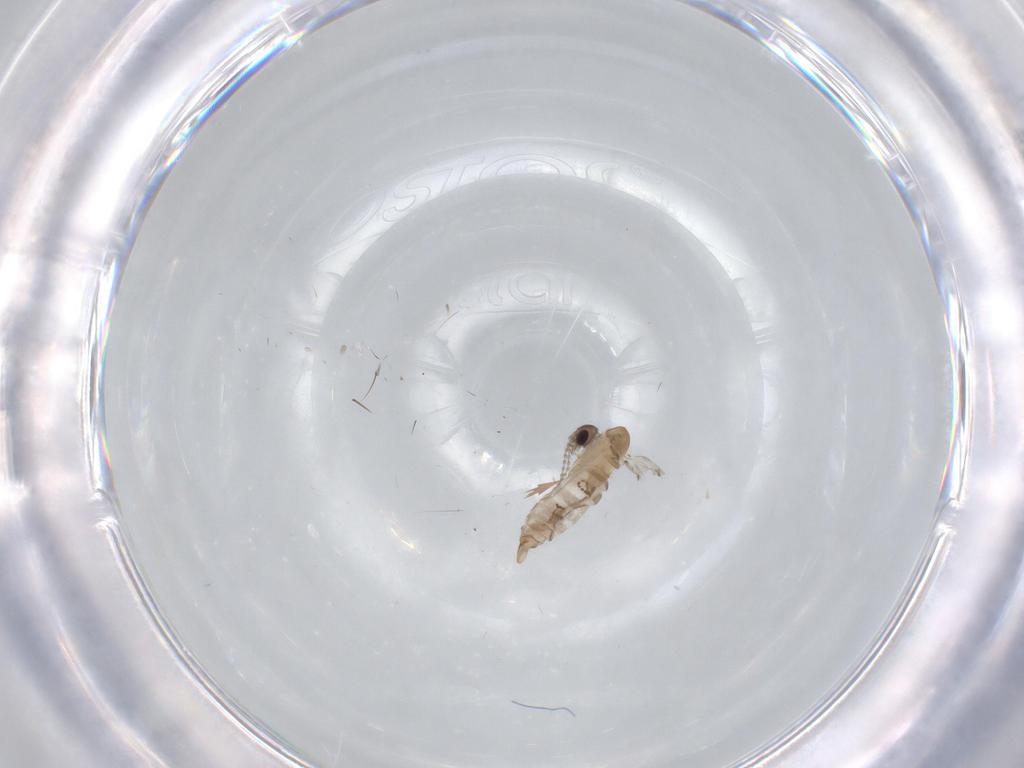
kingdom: Animalia
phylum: Arthropoda
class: Insecta
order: Diptera
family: Psychodidae
